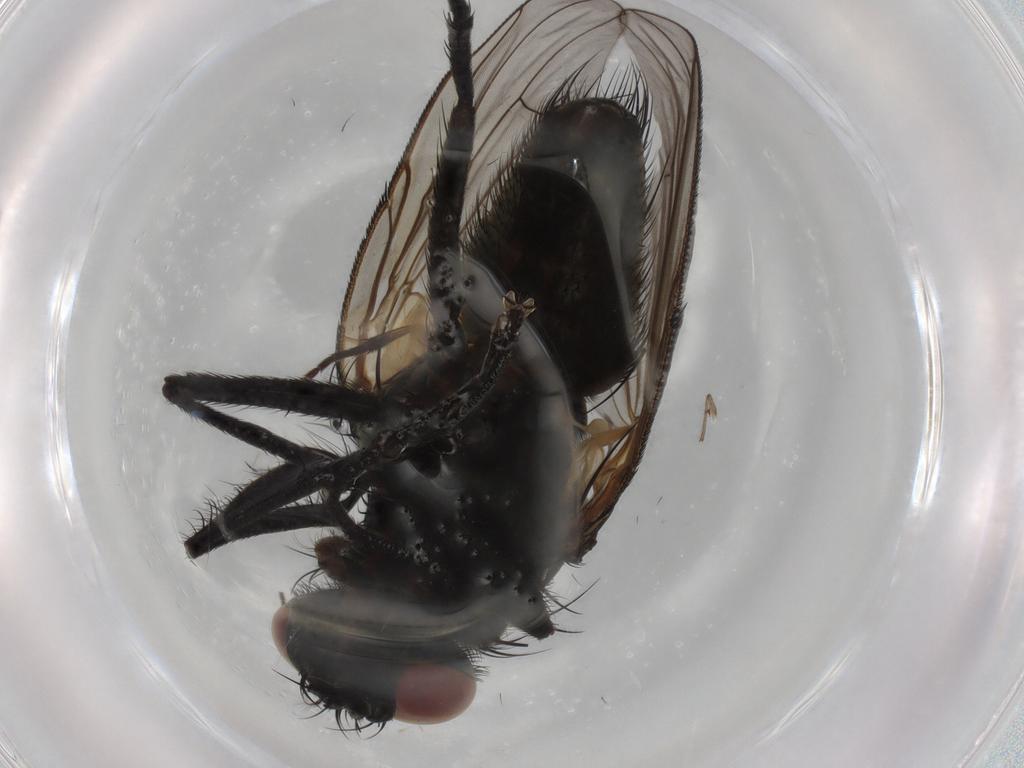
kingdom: Animalia
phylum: Arthropoda
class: Insecta
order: Diptera
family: Muscidae
